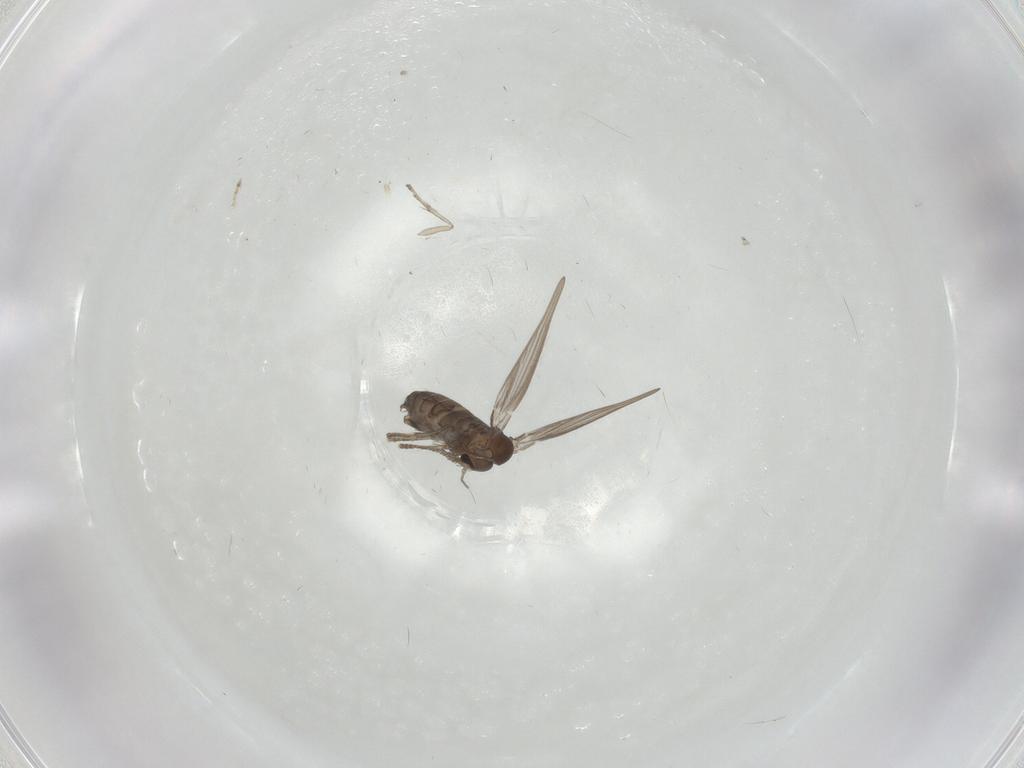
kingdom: Animalia
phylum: Arthropoda
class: Insecta
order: Diptera
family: Psychodidae
